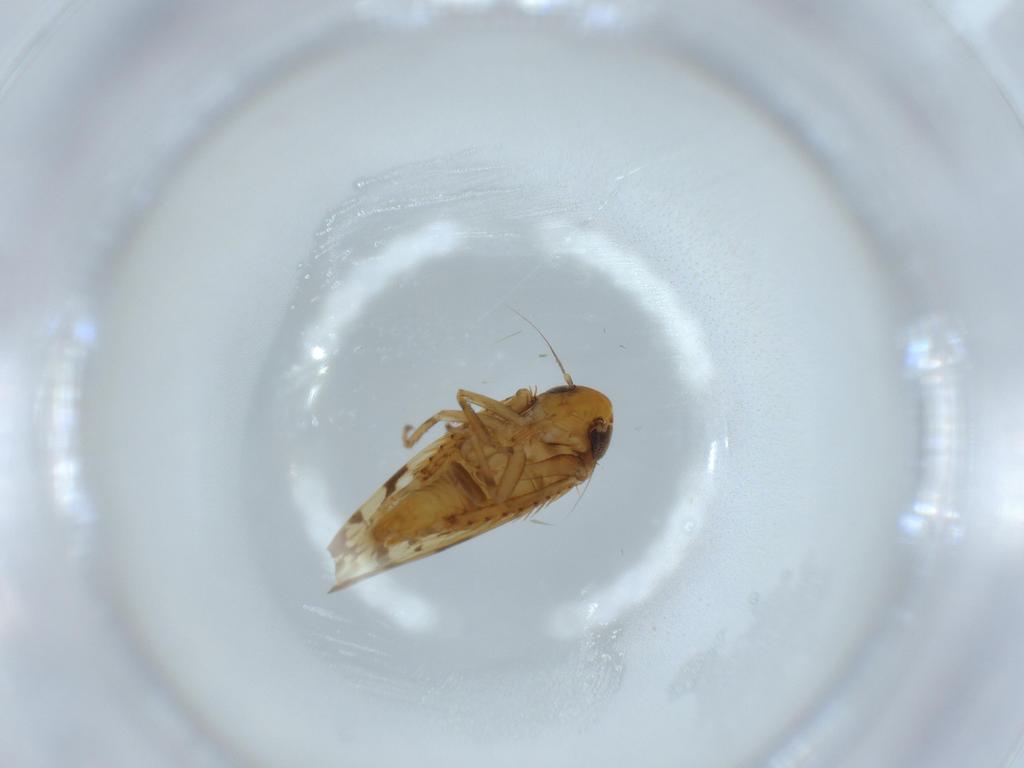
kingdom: Animalia
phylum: Arthropoda
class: Insecta
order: Hemiptera
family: Cicadellidae
